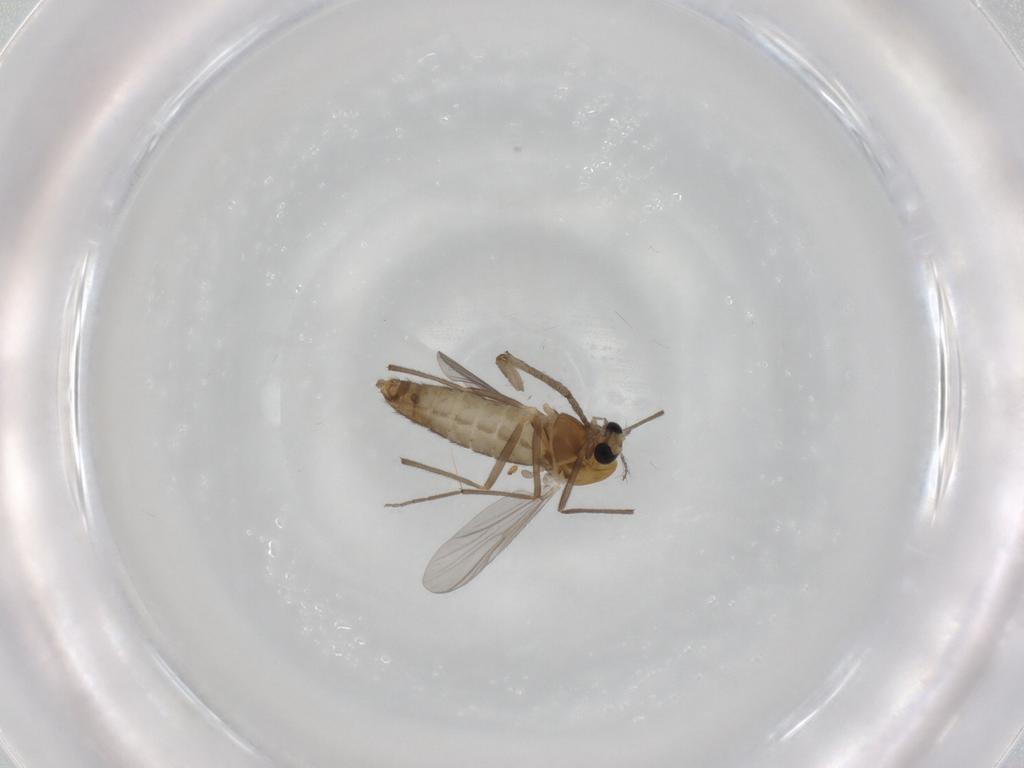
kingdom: Animalia
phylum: Arthropoda
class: Insecta
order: Diptera
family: Chironomidae
